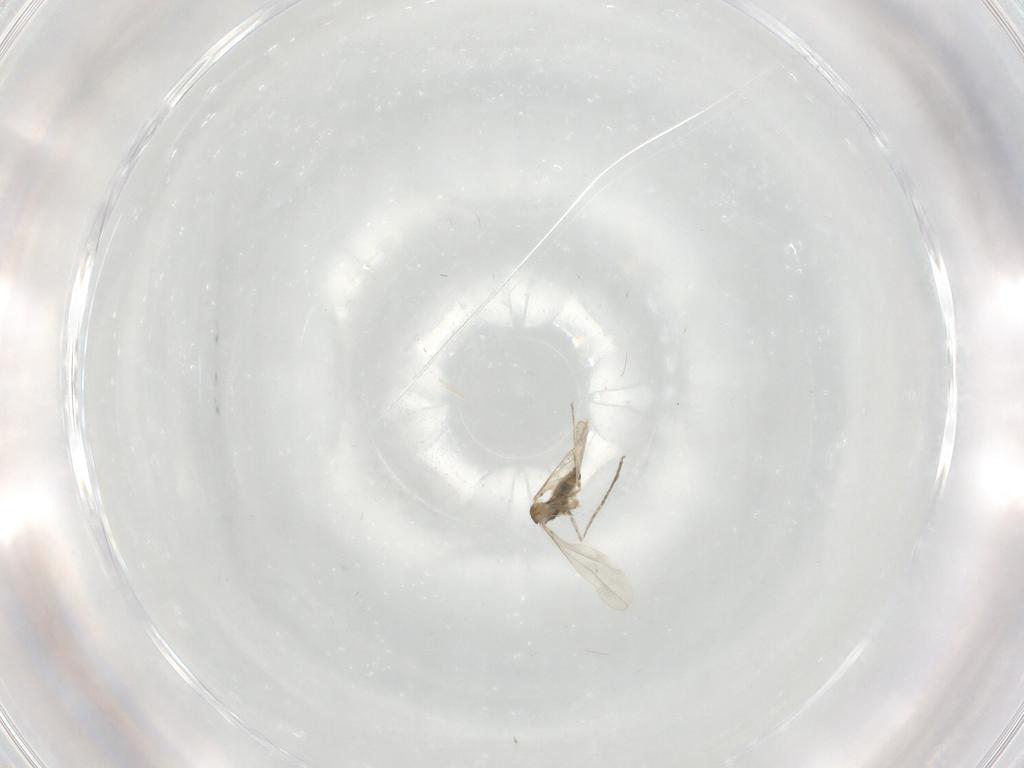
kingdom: Animalia
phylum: Arthropoda
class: Insecta
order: Diptera
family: Cecidomyiidae
